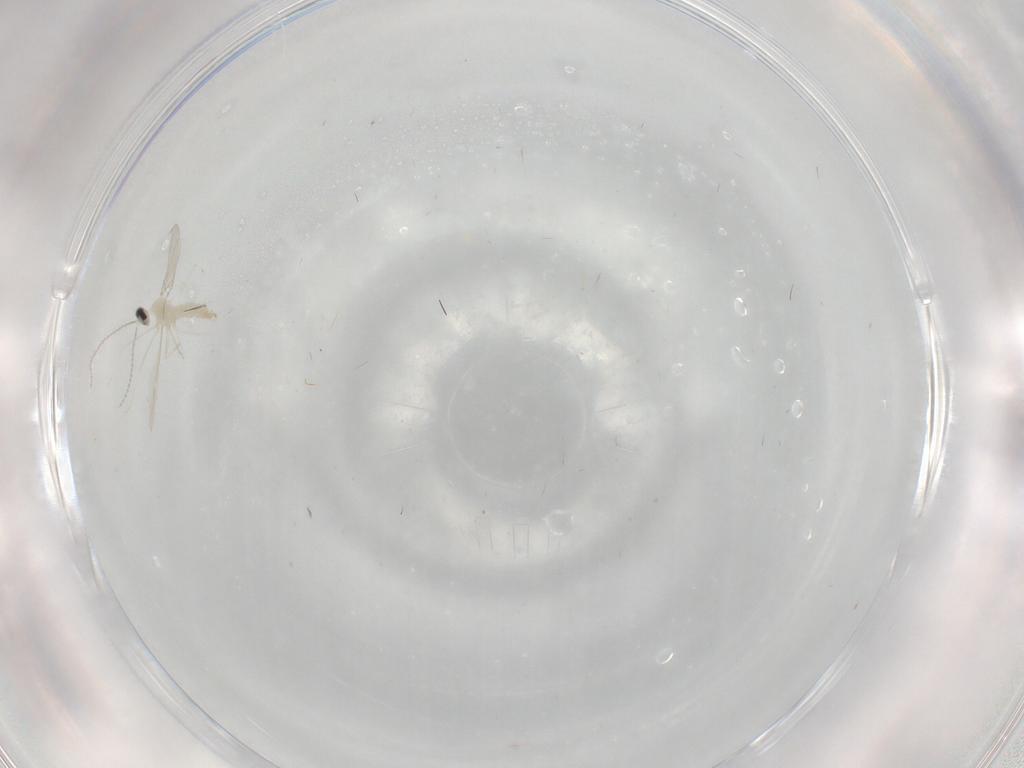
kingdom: Animalia
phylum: Arthropoda
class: Insecta
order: Diptera
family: Cecidomyiidae
